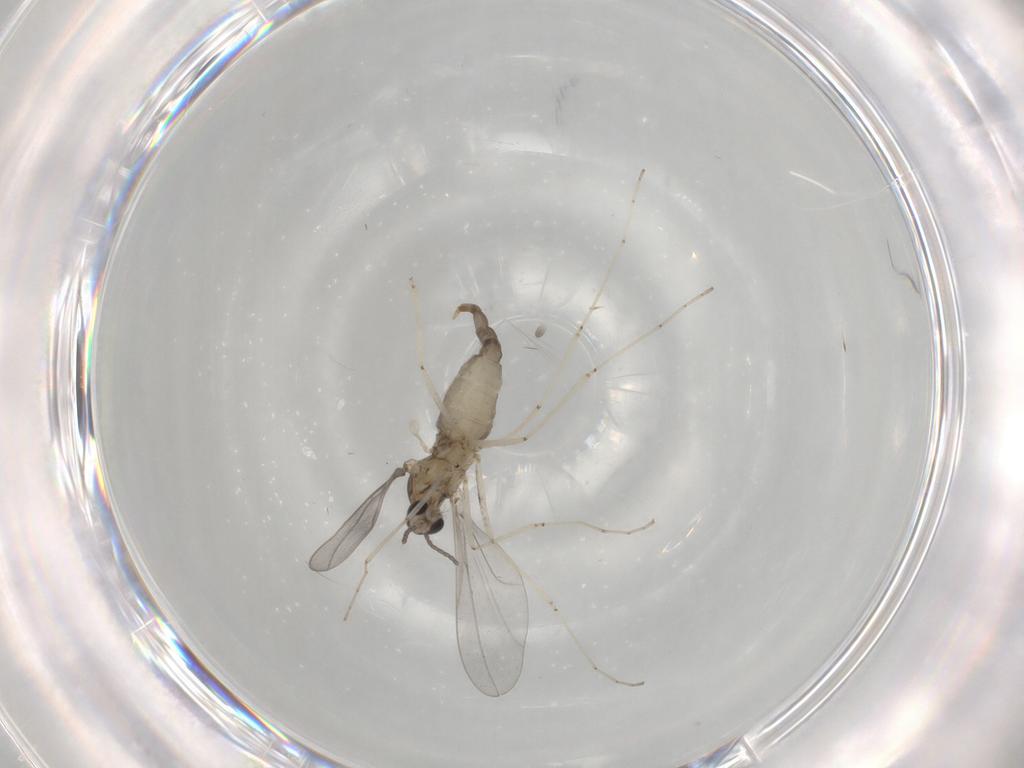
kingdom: Animalia
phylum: Arthropoda
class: Insecta
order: Diptera
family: Cecidomyiidae
